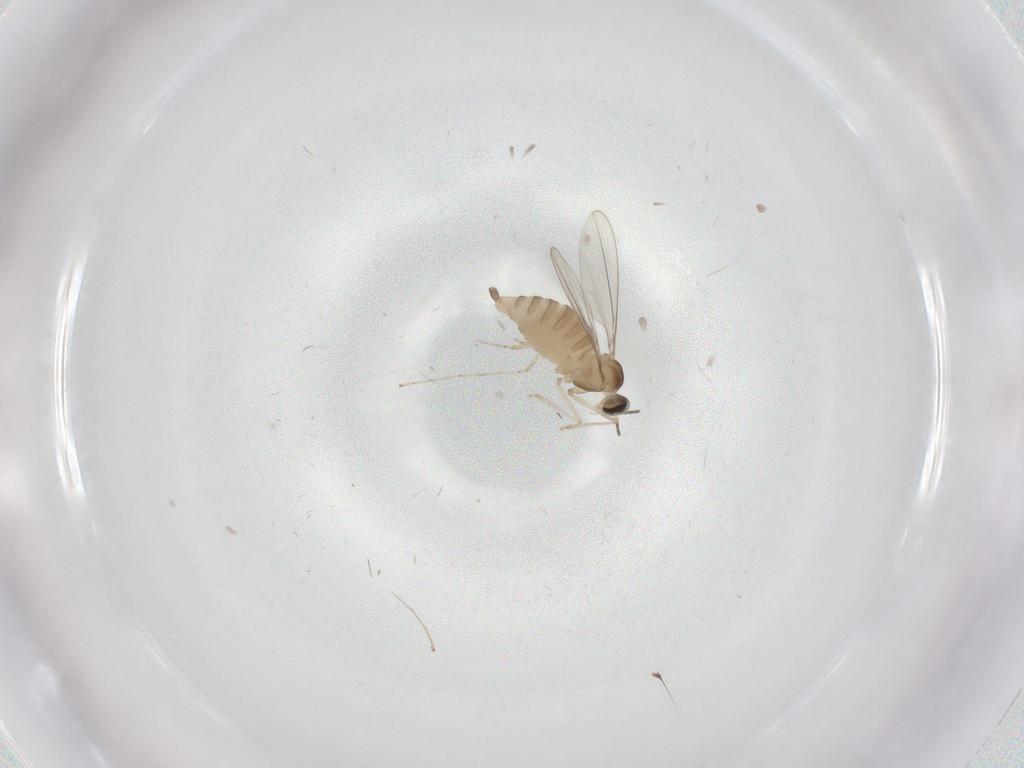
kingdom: Animalia
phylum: Arthropoda
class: Insecta
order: Diptera
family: Cecidomyiidae
